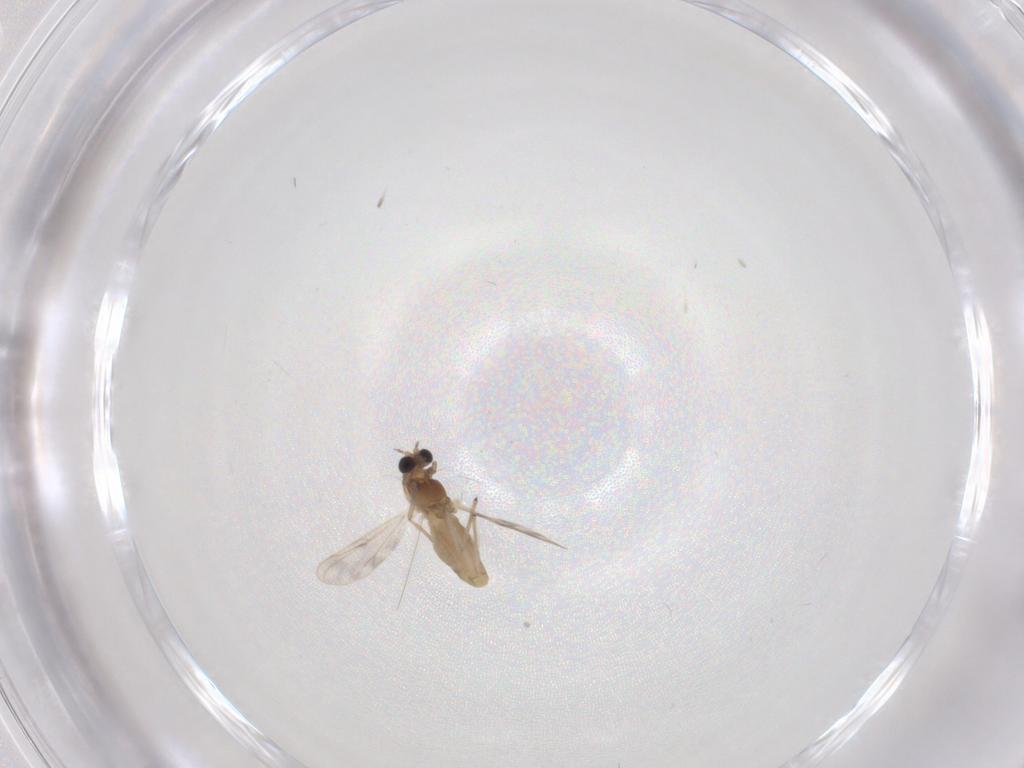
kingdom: Animalia
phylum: Arthropoda
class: Insecta
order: Diptera
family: Chironomidae
